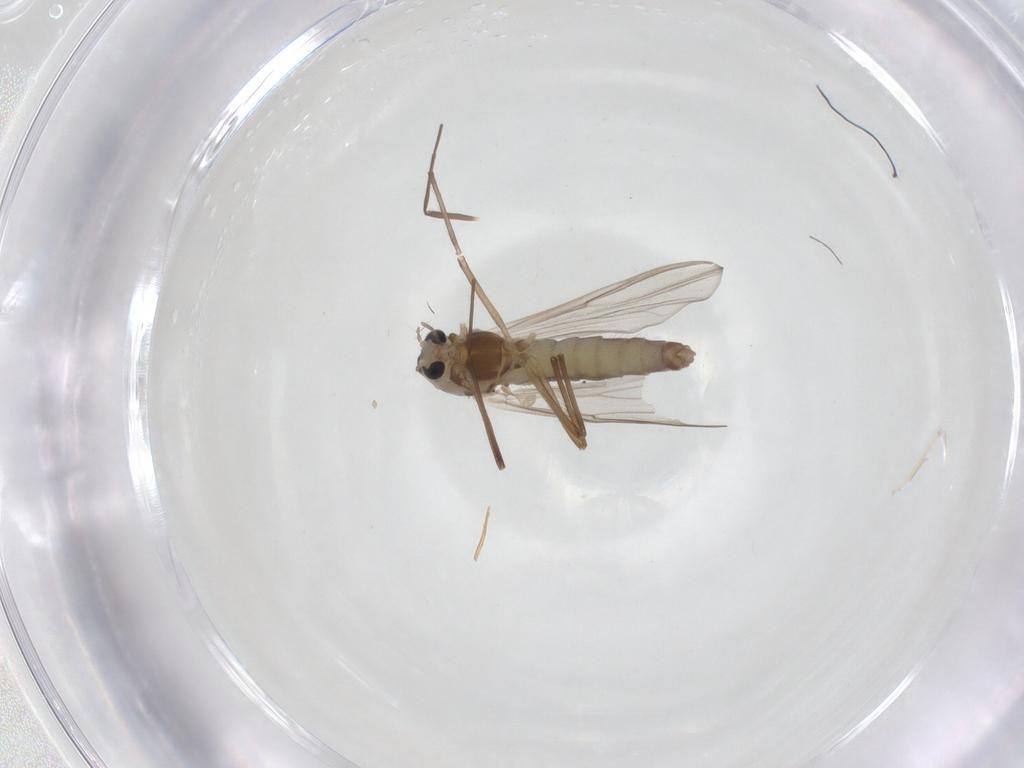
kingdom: Animalia
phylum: Arthropoda
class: Insecta
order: Diptera
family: Chironomidae
